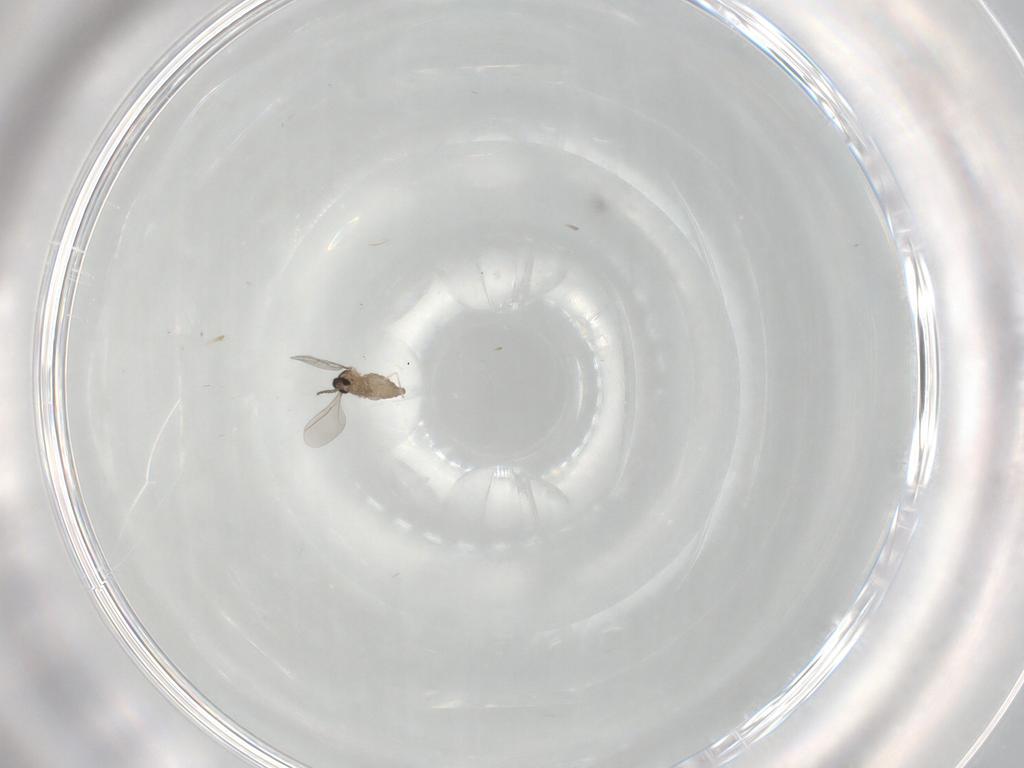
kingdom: Animalia
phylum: Arthropoda
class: Insecta
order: Diptera
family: Cecidomyiidae
